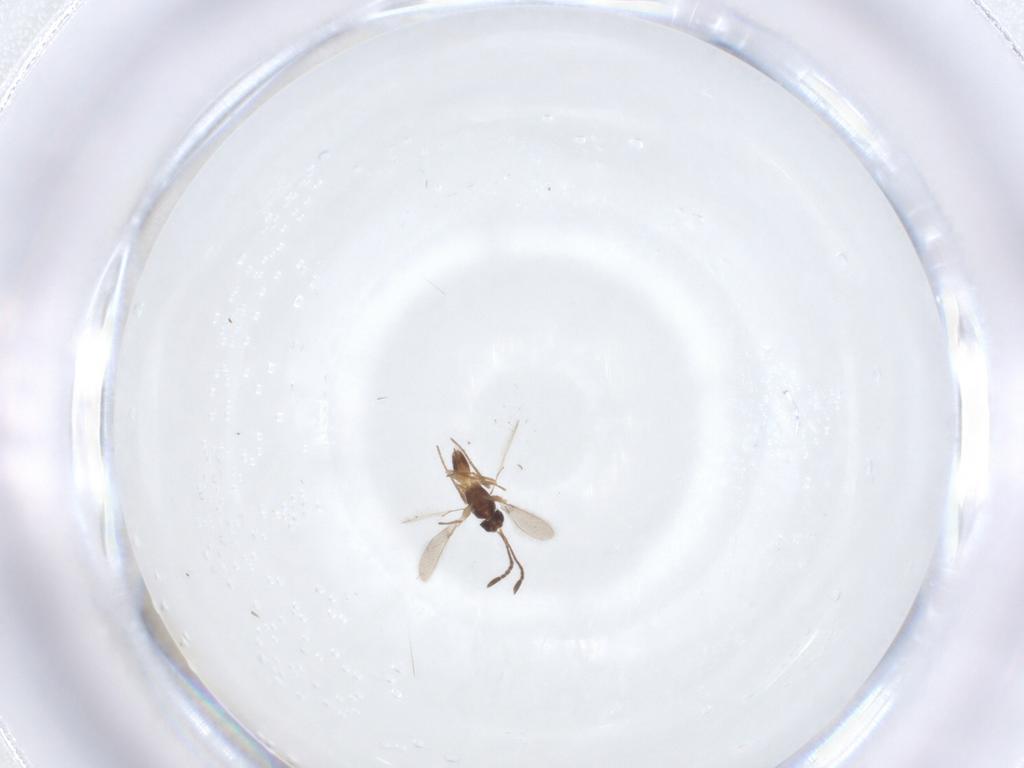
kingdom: Animalia
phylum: Arthropoda
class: Insecta
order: Hymenoptera
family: Mymaridae
